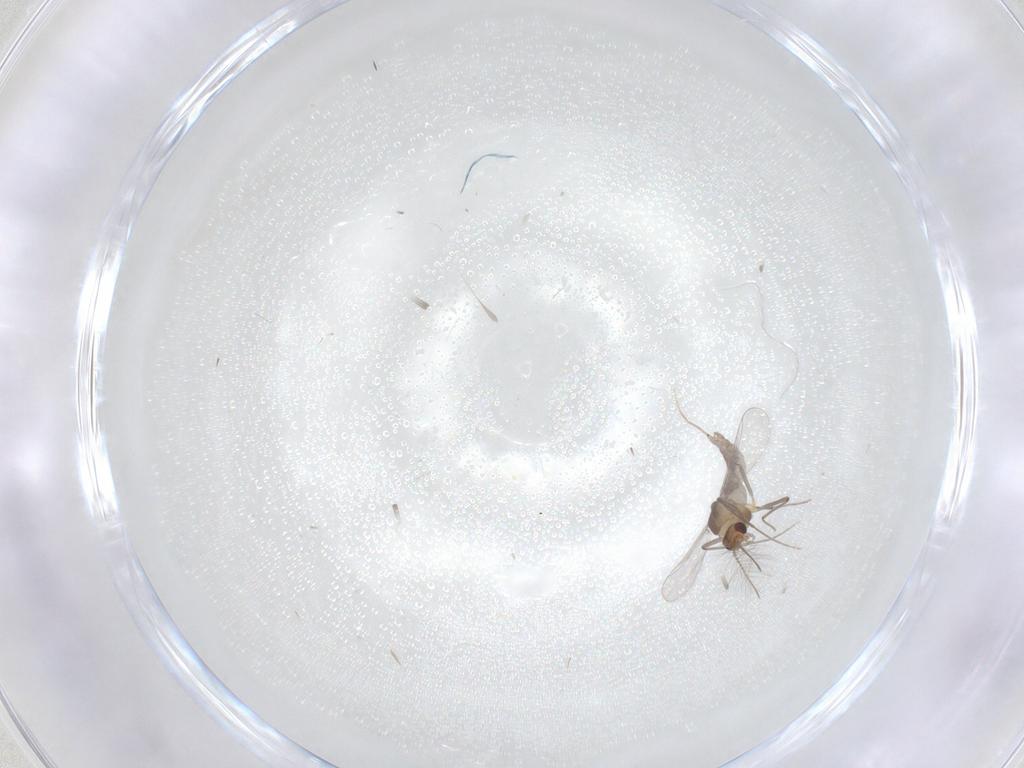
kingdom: Animalia
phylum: Arthropoda
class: Insecta
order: Diptera
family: Chironomidae
